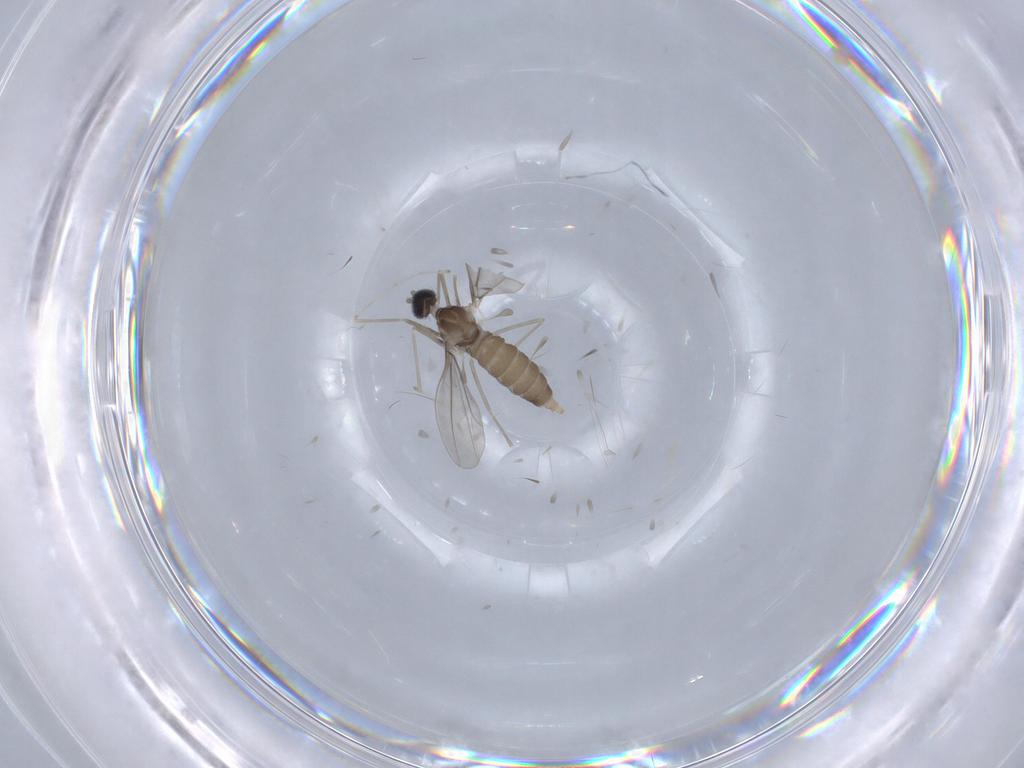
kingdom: Animalia
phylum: Arthropoda
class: Insecta
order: Diptera
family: Cecidomyiidae
